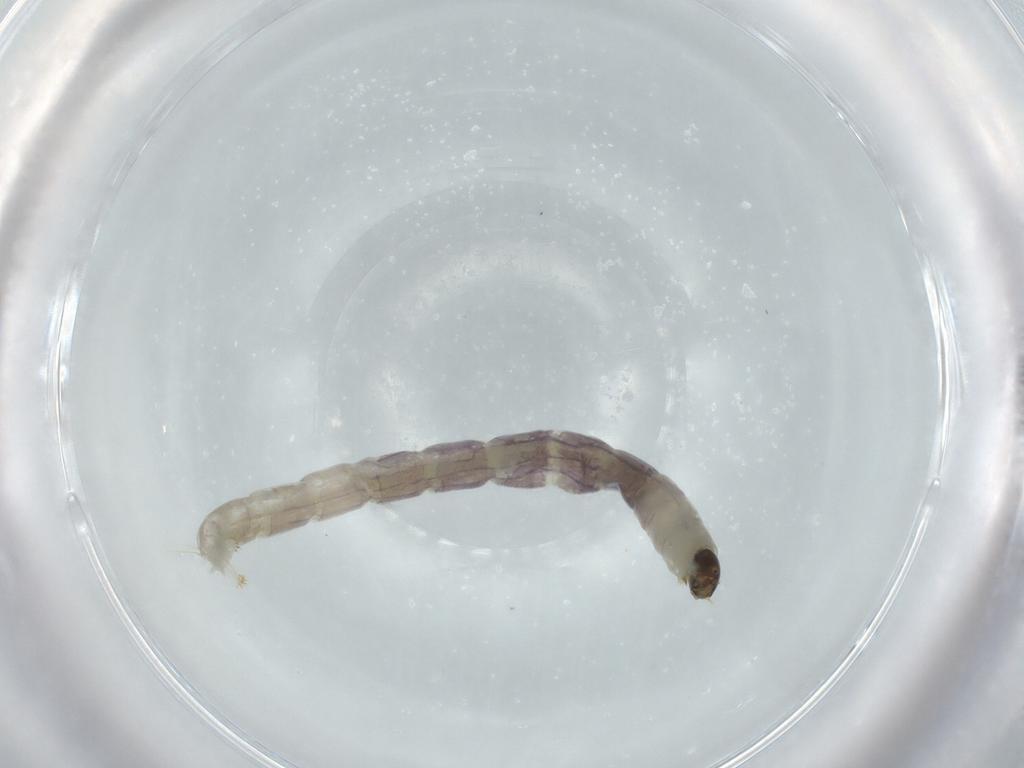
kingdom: Animalia
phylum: Arthropoda
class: Insecta
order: Diptera
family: Chironomidae
